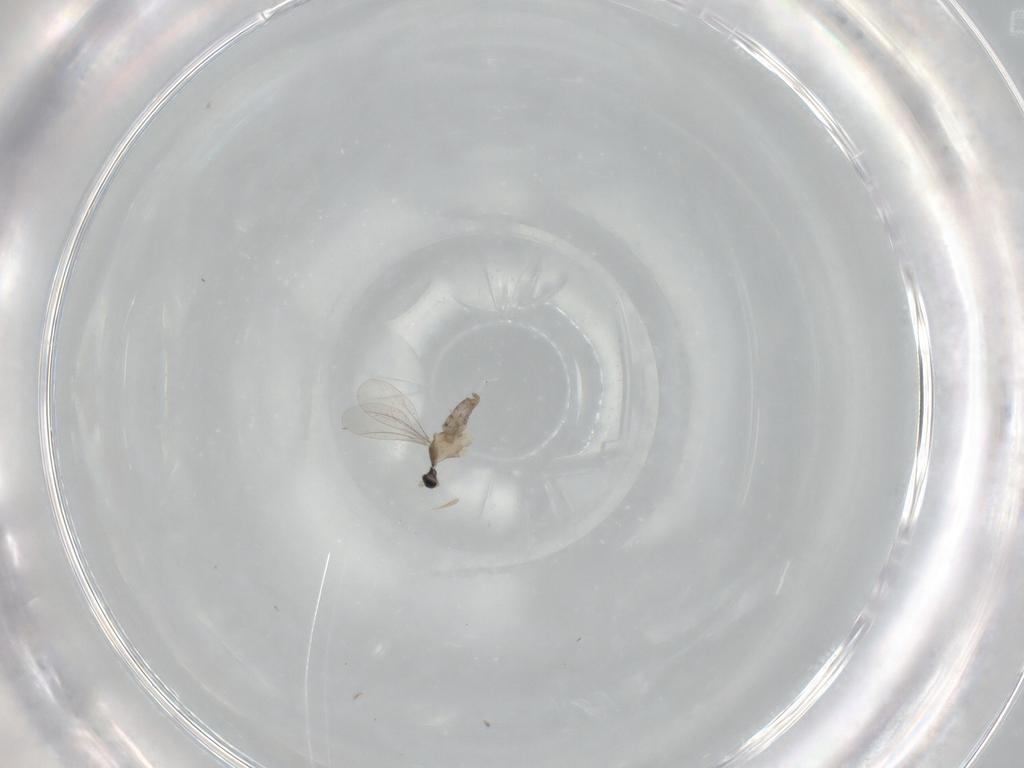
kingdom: Animalia
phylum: Arthropoda
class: Insecta
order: Diptera
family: Cecidomyiidae
